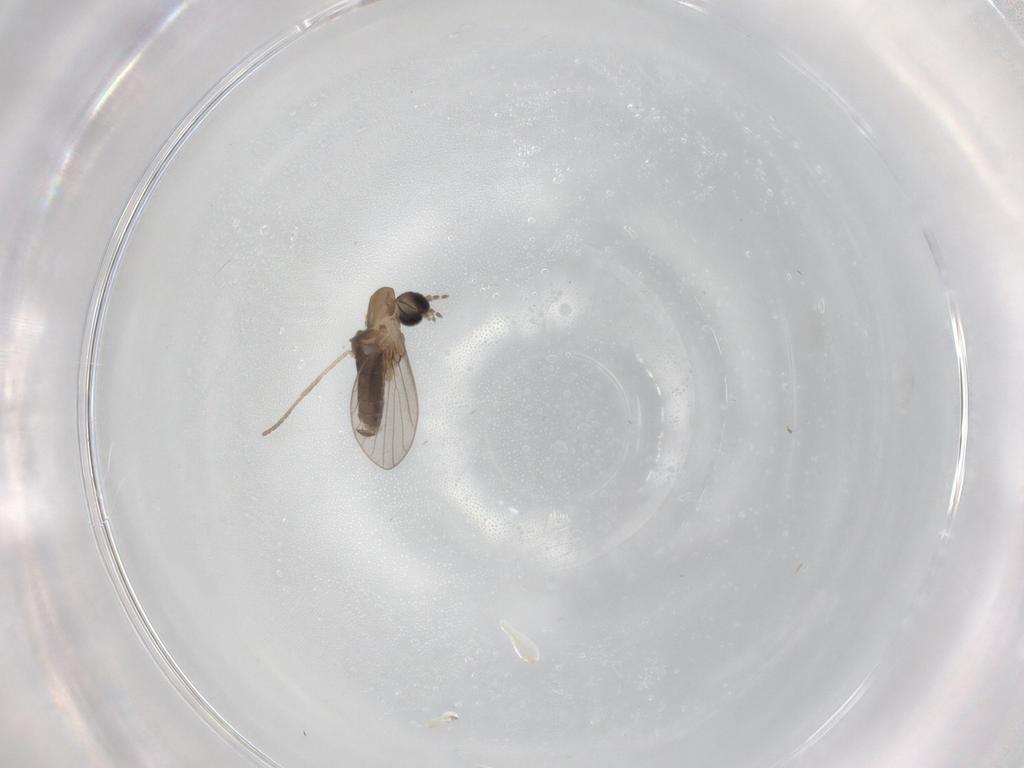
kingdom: Animalia
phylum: Arthropoda
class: Insecta
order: Diptera
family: Psychodidae
